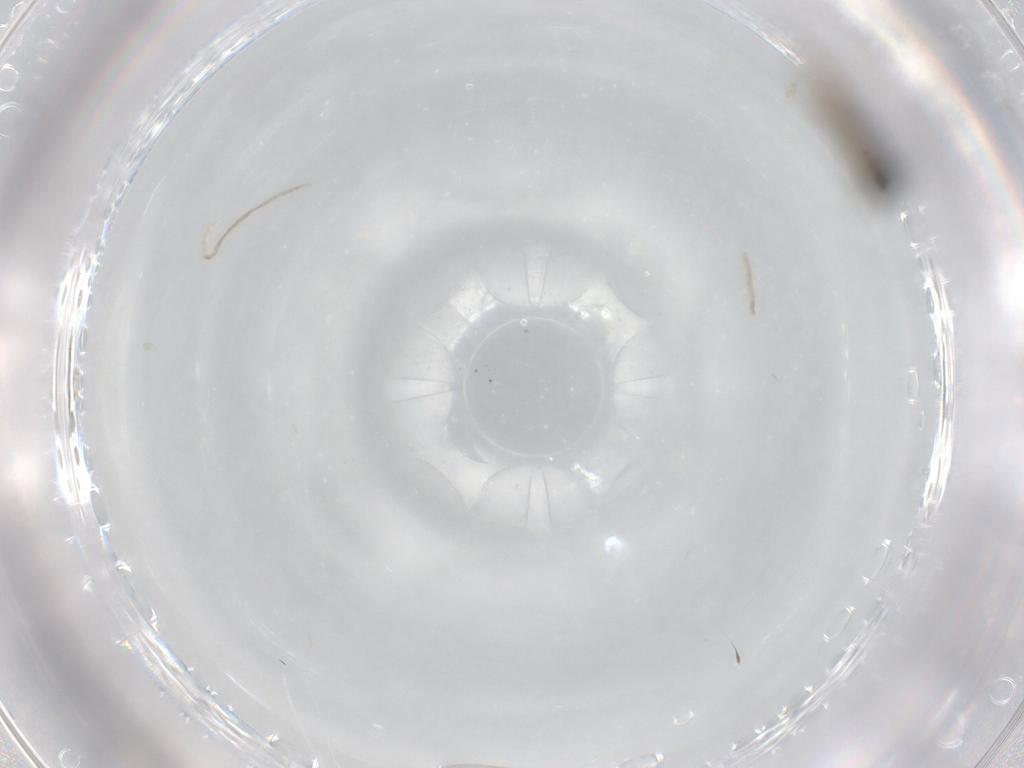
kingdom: Animalia
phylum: Arthropoda
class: Insecta
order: Diptera
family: Phoridae
